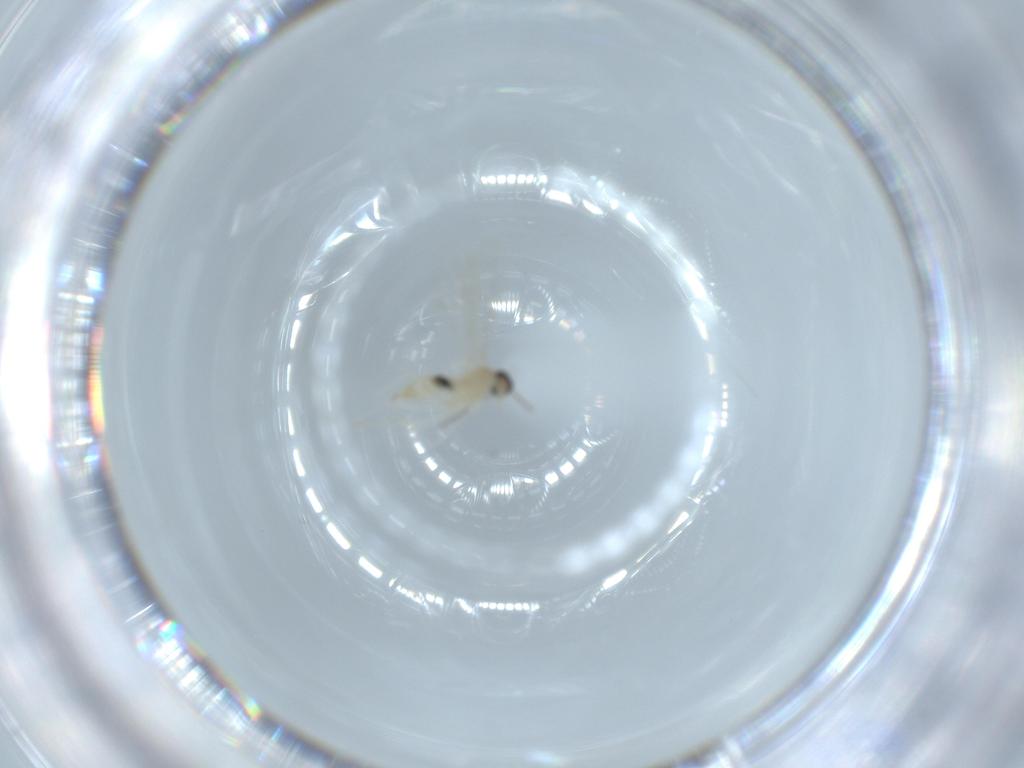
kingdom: Animalia
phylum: Arthropoda
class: Insecta
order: Diptera
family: Cecidomyiidae
